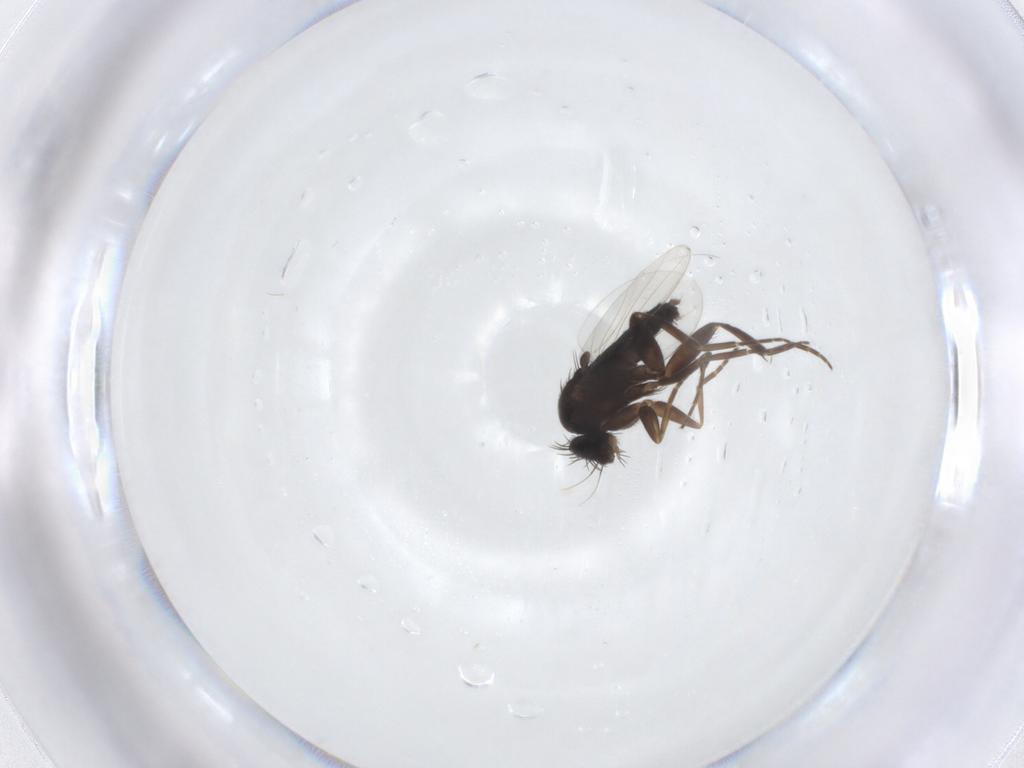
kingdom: Animalia
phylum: Arthropoda
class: Insecta
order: Diptera
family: Phoridae
